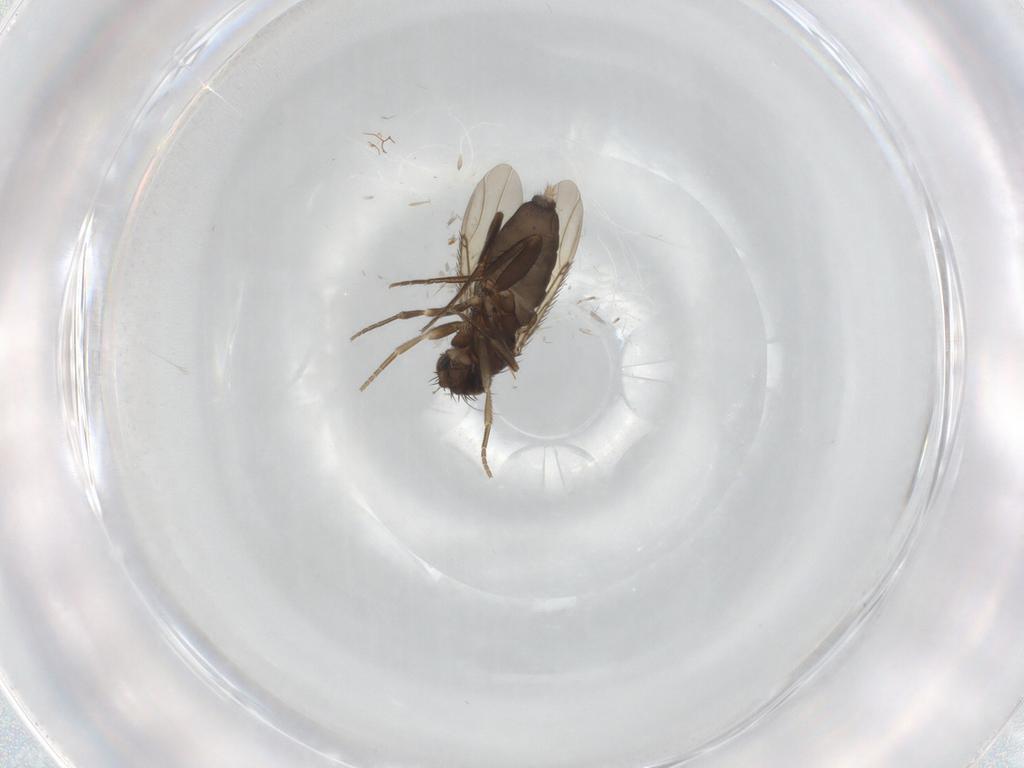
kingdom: Animalia
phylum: Arthropoda
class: Insecta
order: Diptera
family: Phoridae
